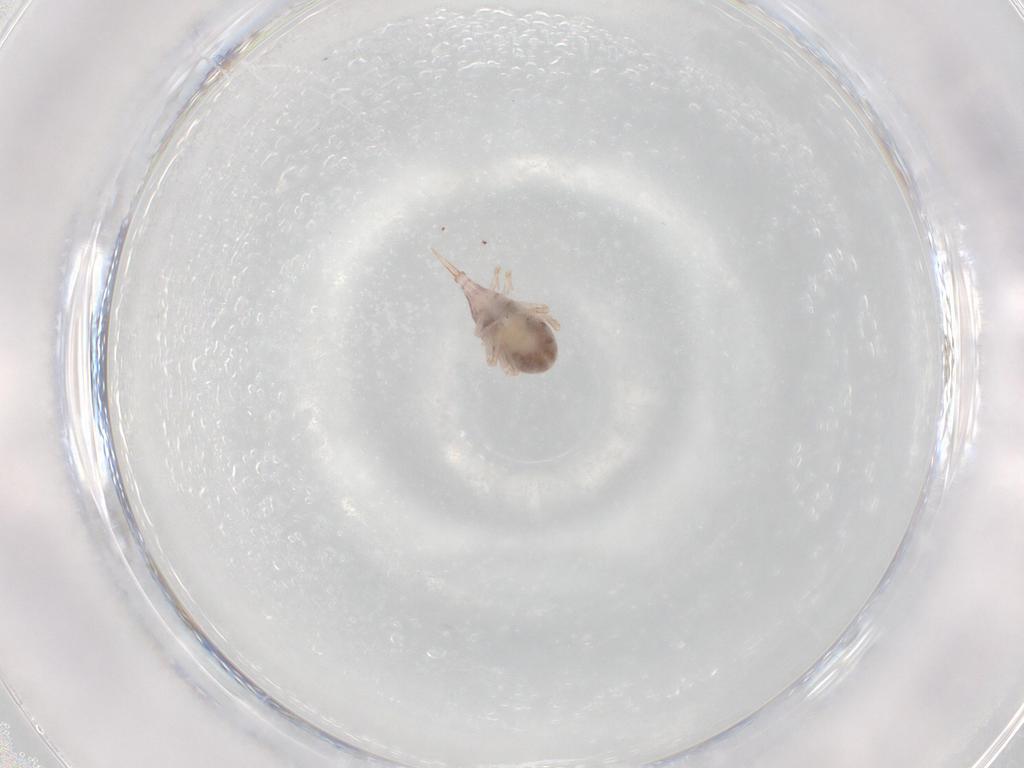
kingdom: Animalia
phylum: Arthropoda
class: Arachnida
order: Trombidiformes
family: Bdellidae
